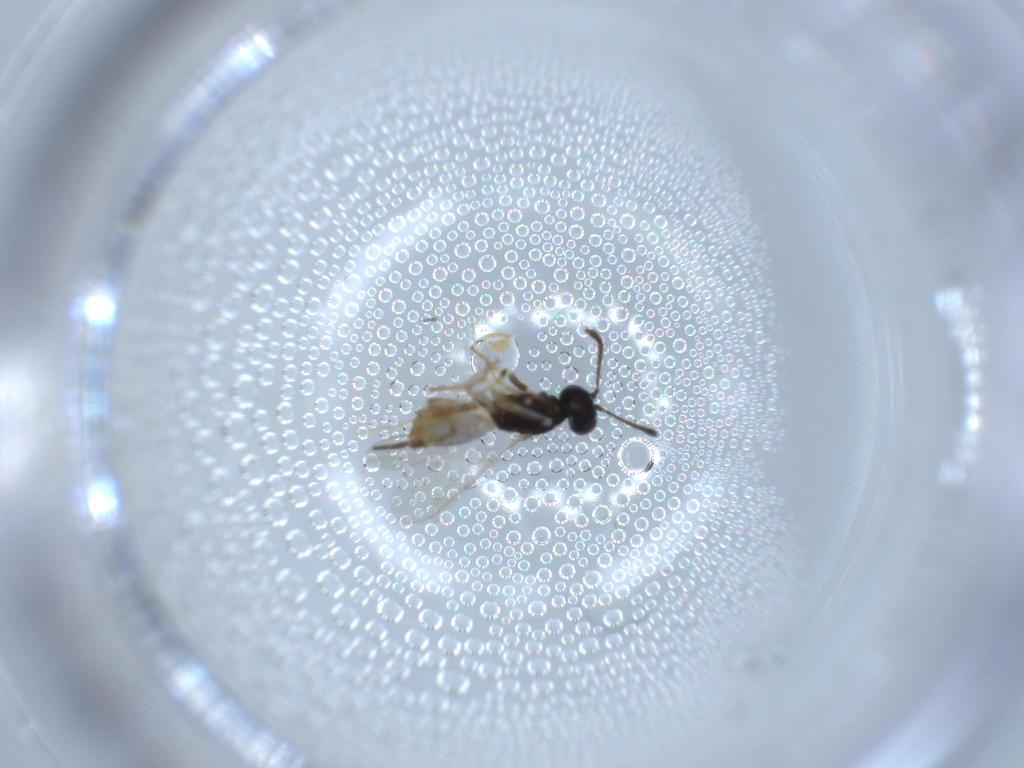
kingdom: Animalia
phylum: Arthropoda
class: Insecta
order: Hymenoptera
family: Eupelmidae
